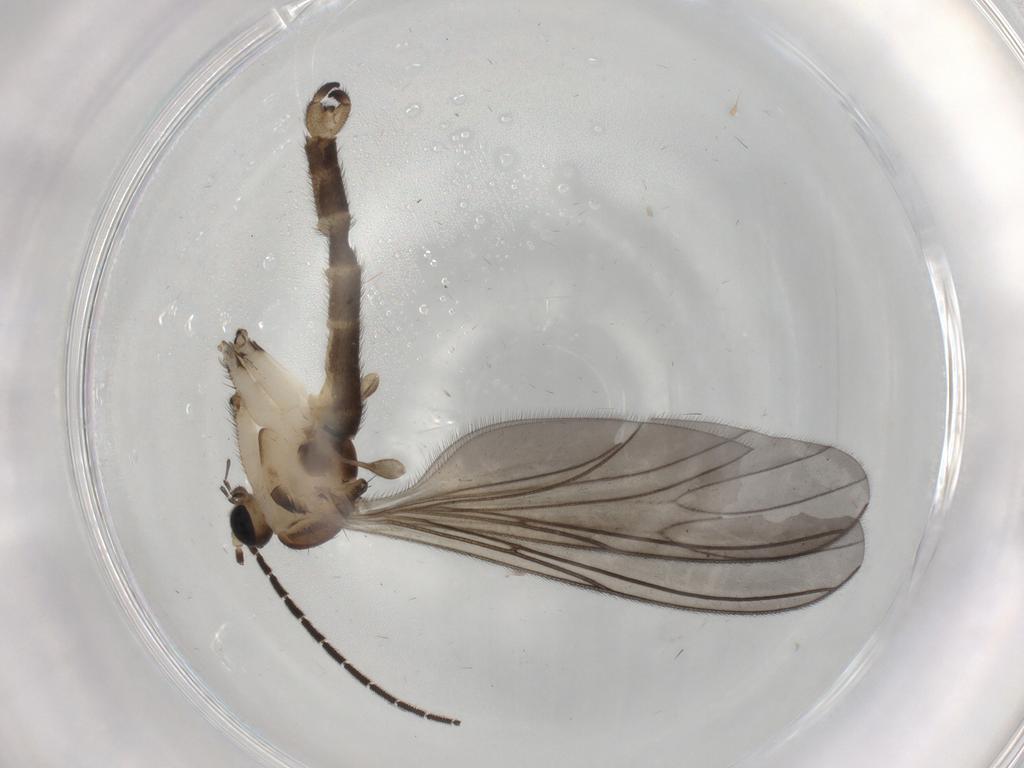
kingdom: Animalia
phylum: Arthropoda
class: Insecta
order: Diptera
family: Sciaridae
